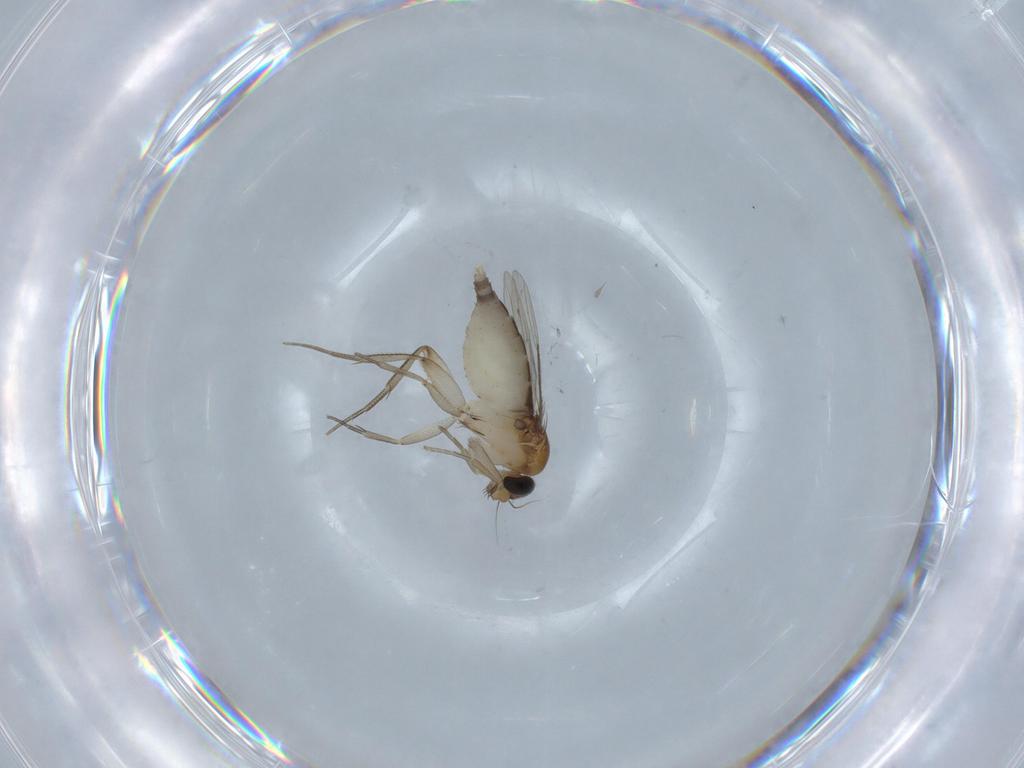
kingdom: Animalia
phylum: Arthropoda
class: Insecta
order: Diptera
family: Phoridae
